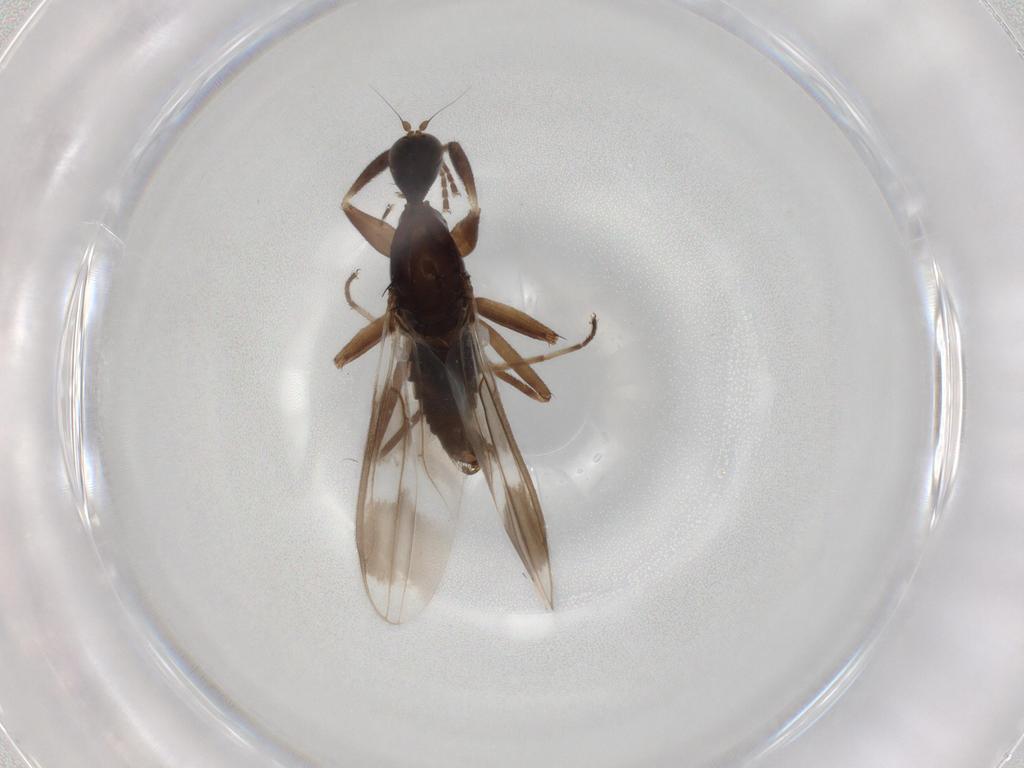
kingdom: Animalia
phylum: Arthropoda
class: Insecta
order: Diptera
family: Hybotidae
